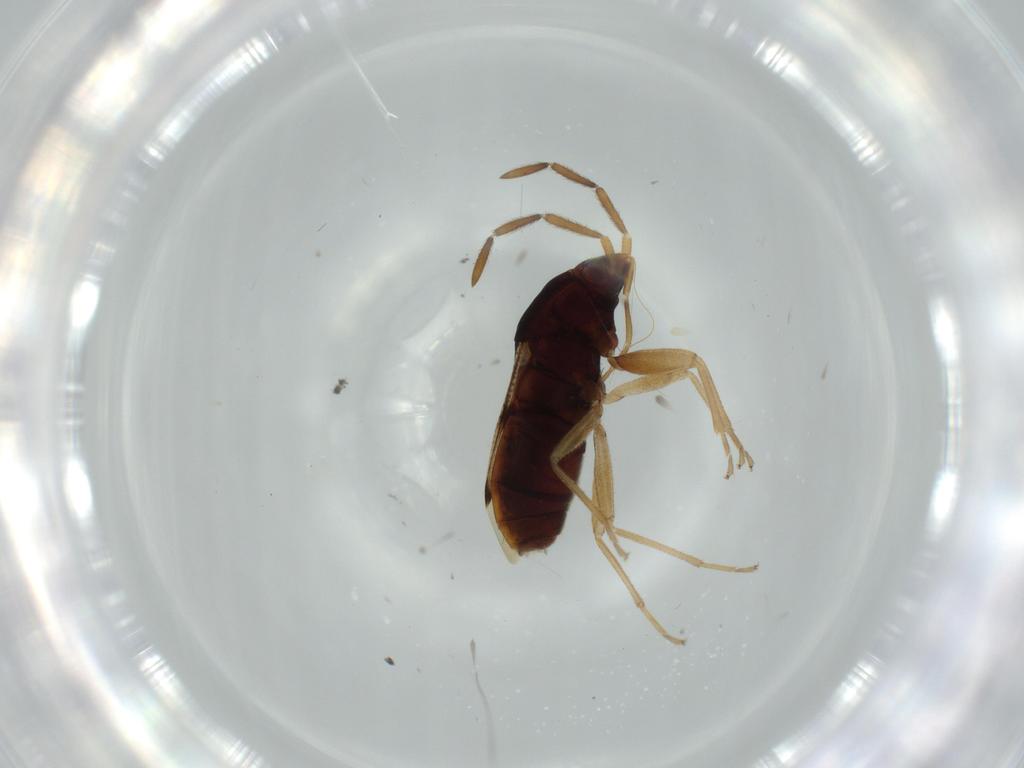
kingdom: Animalia
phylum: Arthropoda
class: Insecta
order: Hemiptera
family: Rhyparochromidae
